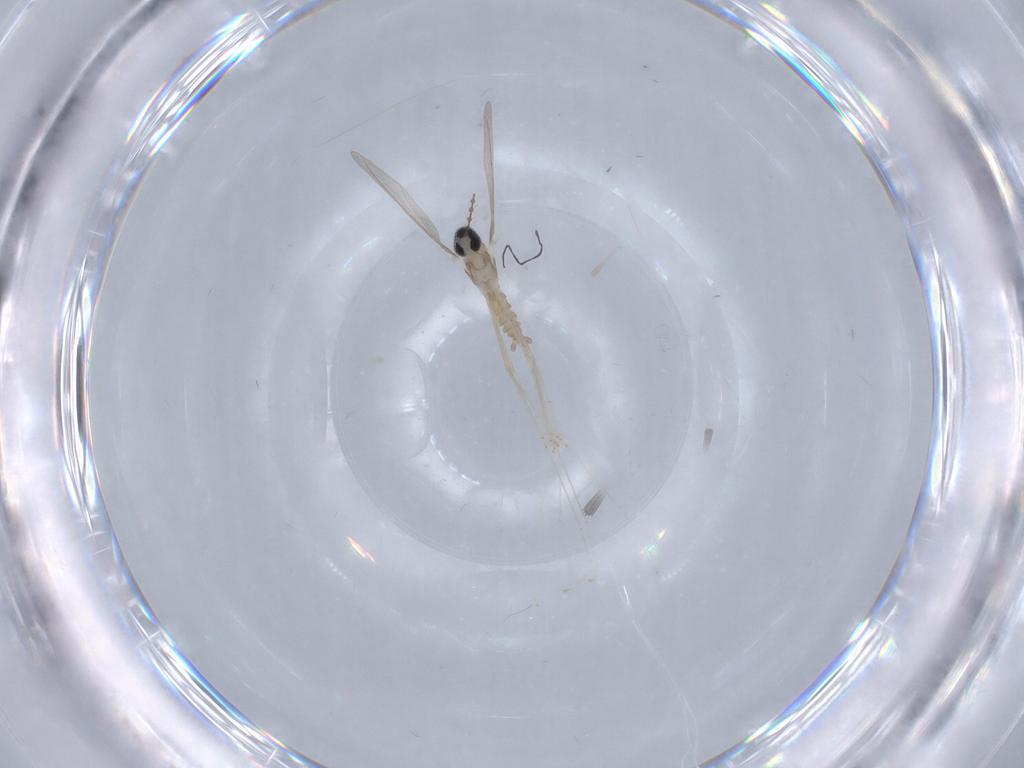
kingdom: Animalia
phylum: Arthropoda
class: Insecta
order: Diptera
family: Dolichopodidae
